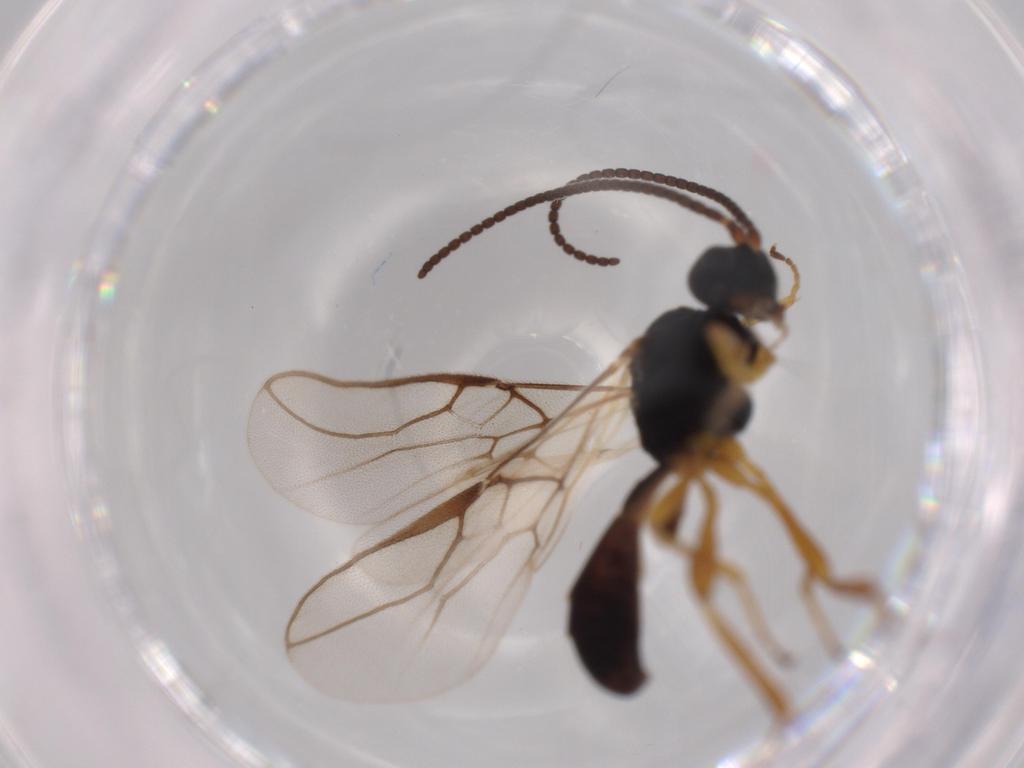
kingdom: Animalia
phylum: Arthropoda
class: Insecta
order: Hymenoptera
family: Braconidae
